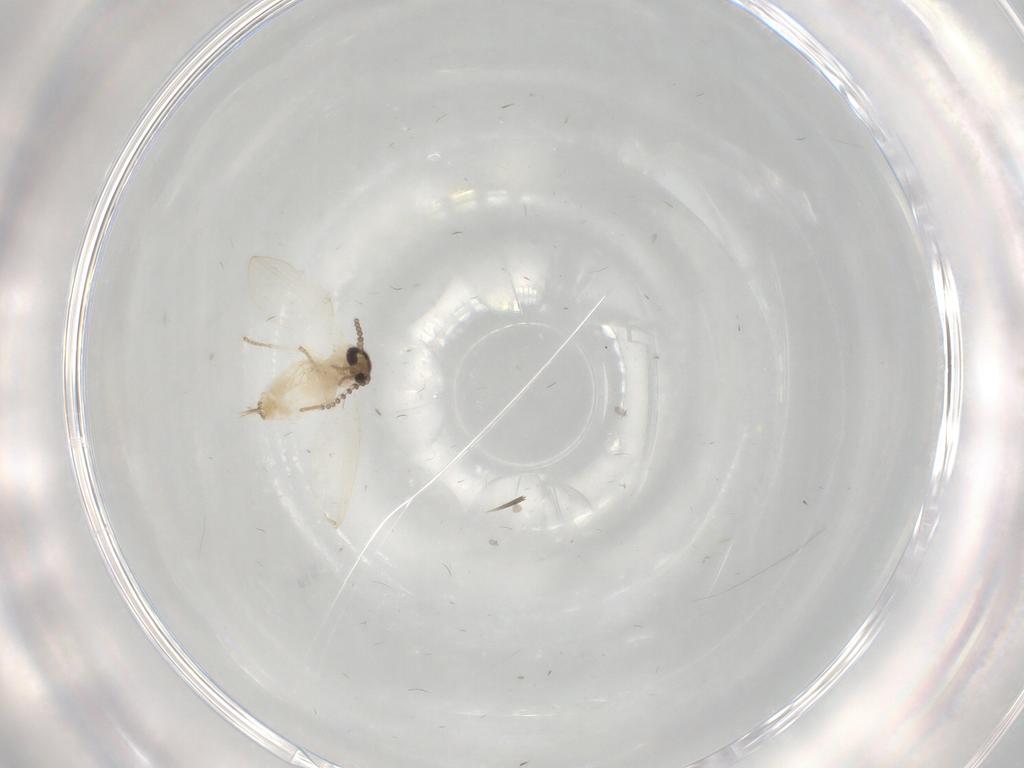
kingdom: Animalia
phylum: Arthropoda
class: Insecta
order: Diptera
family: Psychodidae
